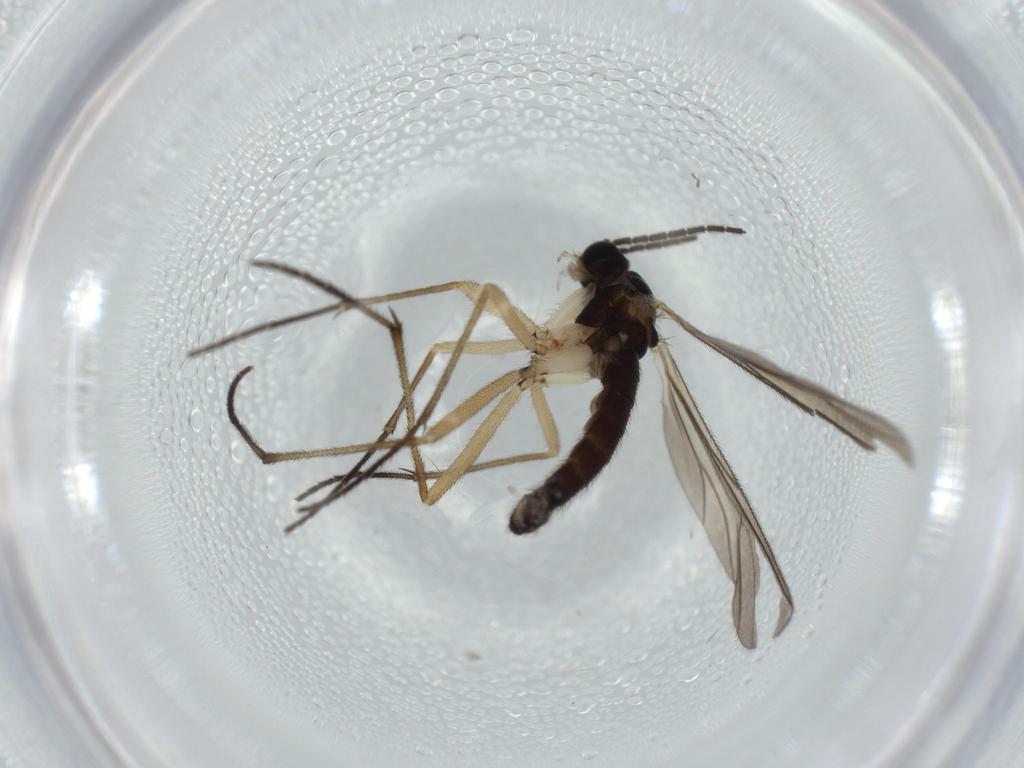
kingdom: Animalia
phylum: Arthropoda
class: Insecta
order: Diptera
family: Sciaridae
